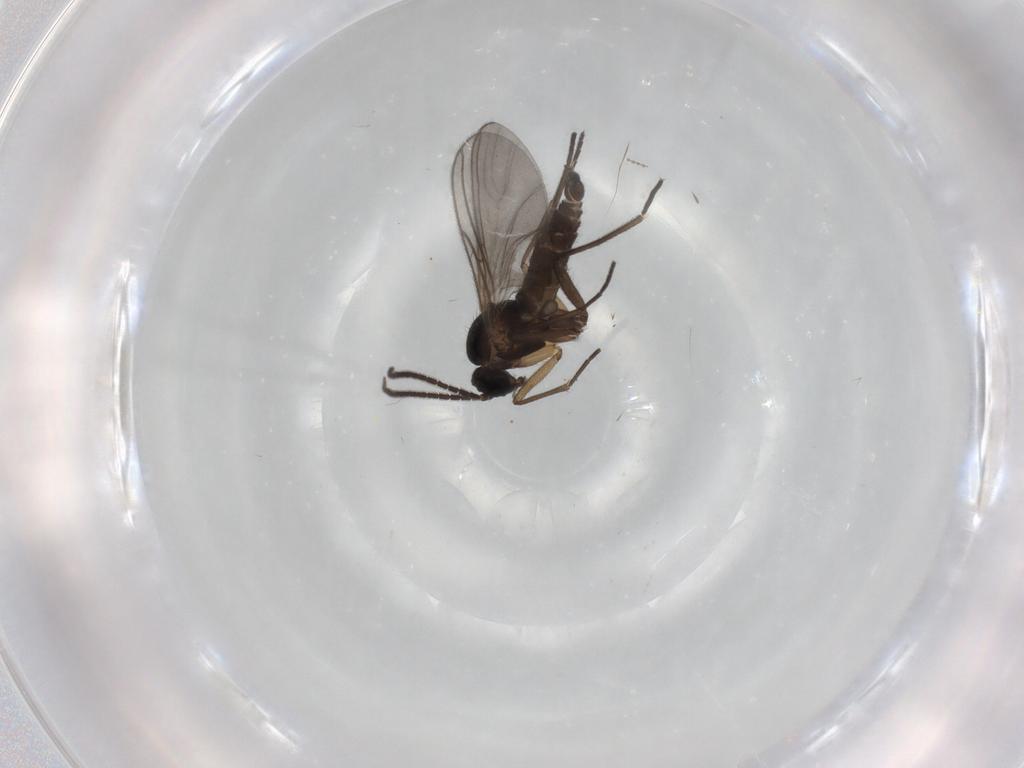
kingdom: Animalia
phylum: Arthropoda
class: Insecta
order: Diptera
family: Sciaridae
